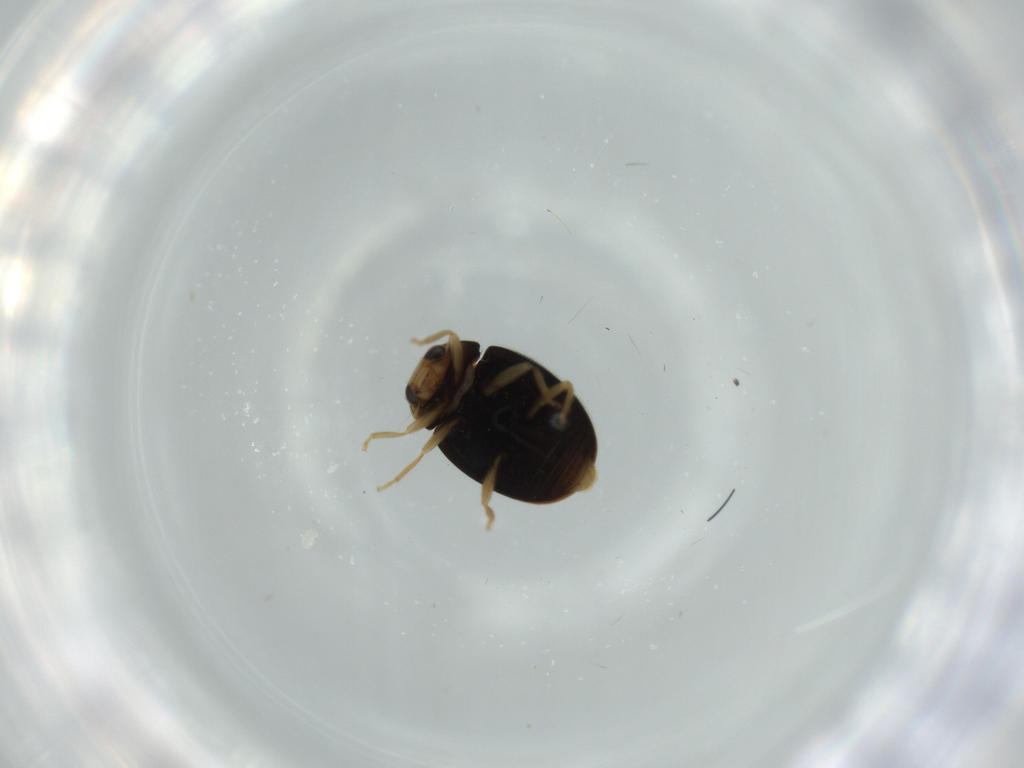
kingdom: Animalia
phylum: Arthropoda
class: Insecta
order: Coleoptera
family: Coccinellidae
